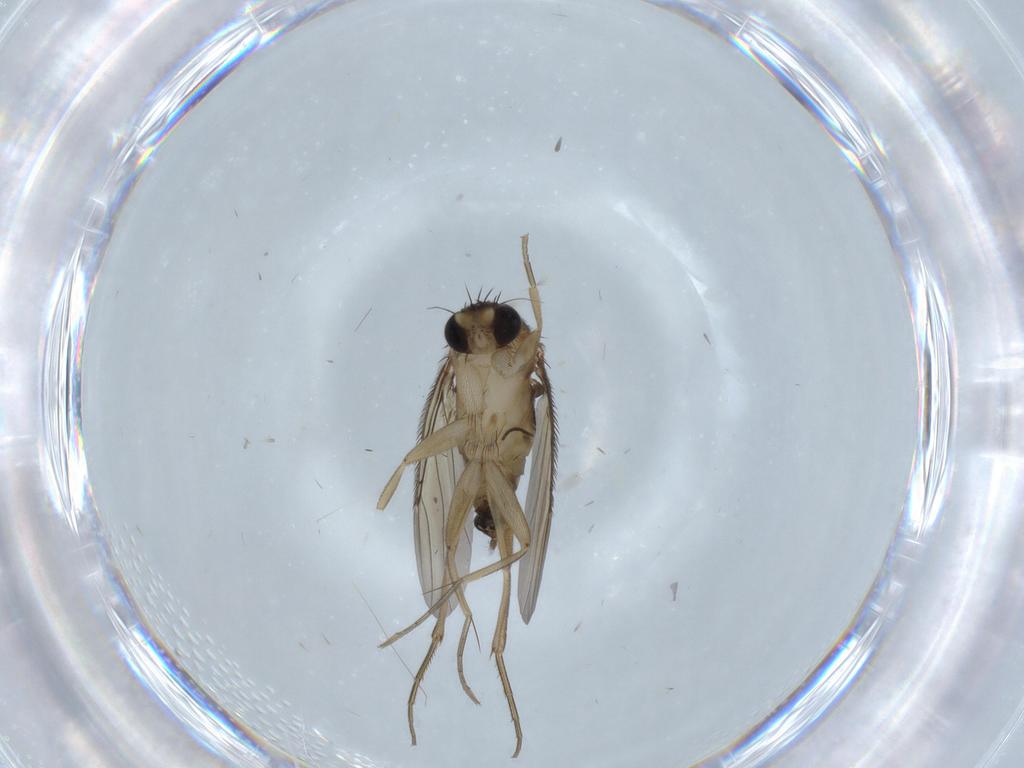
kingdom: Animalia
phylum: Arthropoda
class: Insecta
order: Diptera
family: Phoridae
